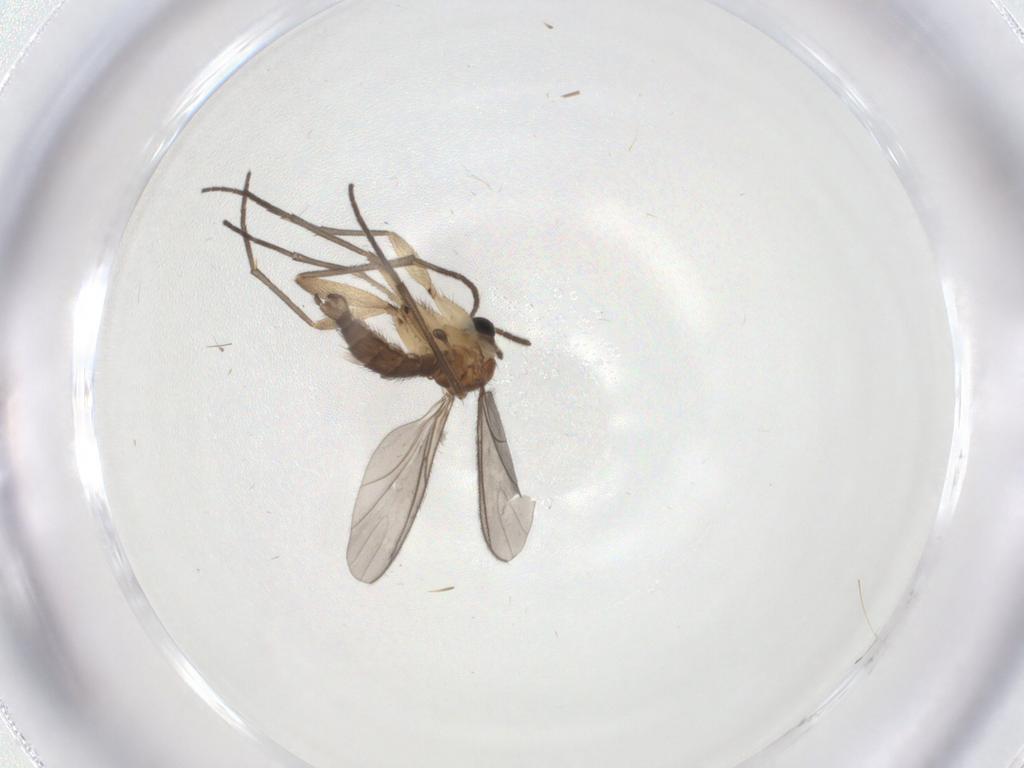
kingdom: Animalia
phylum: Arthropoda
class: Insecta
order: Diptera
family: Sciaridae
